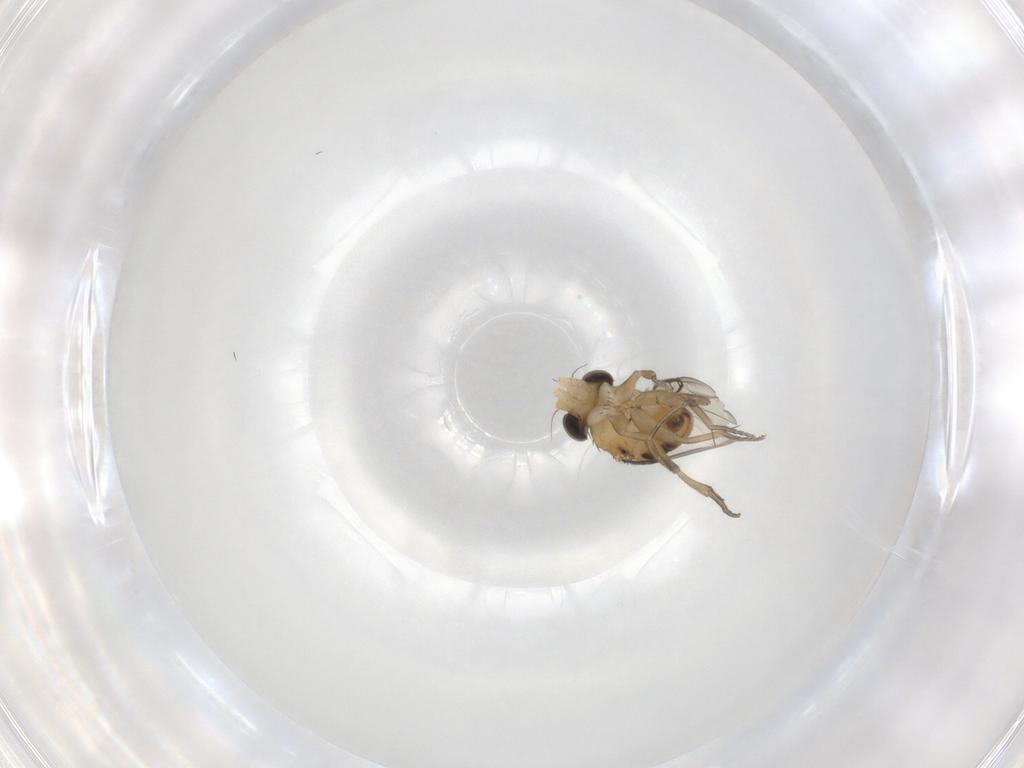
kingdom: Animalia
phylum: Arthropoda
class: Insecta
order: Diptera
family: Phoridae
